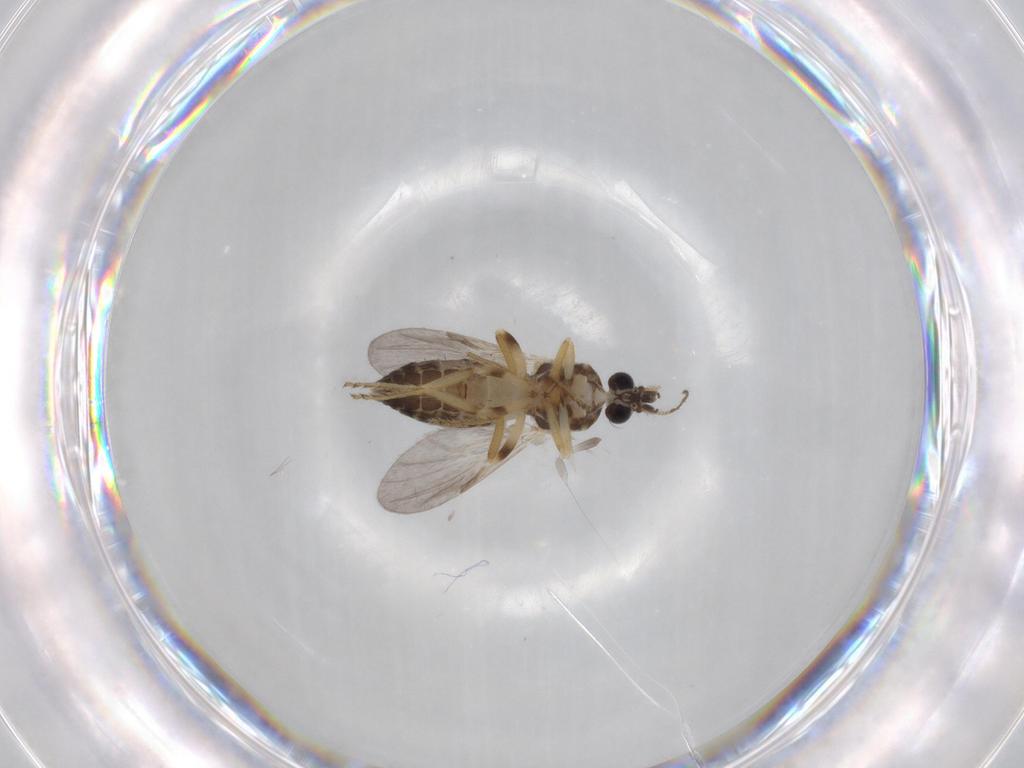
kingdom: Animalia
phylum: Arthropoda
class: Insecta
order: Diptera
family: Ceratopogonidae
